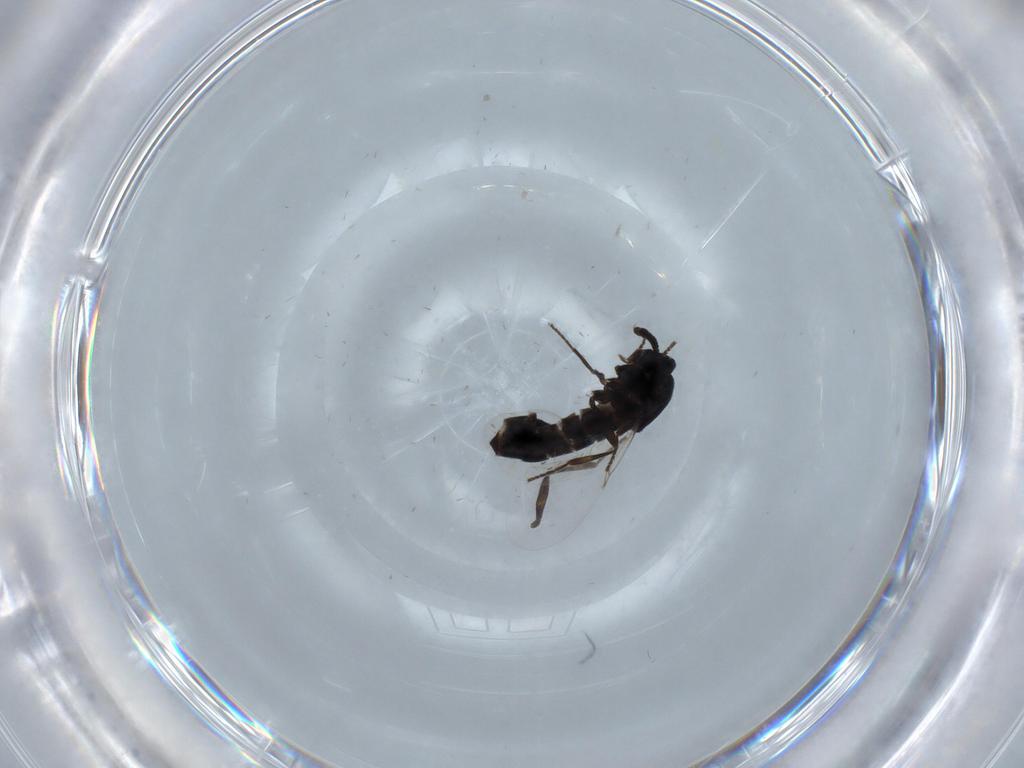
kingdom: Animalia
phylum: Arthropoda
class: Insecta
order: Diptera
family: Scatopsidae
